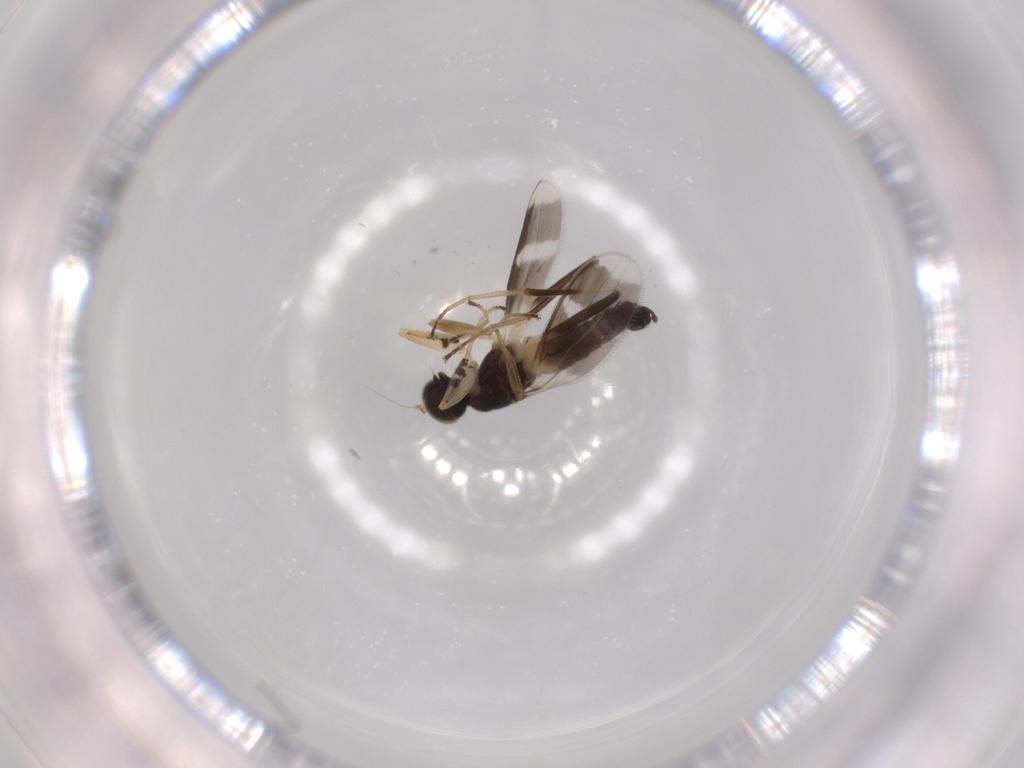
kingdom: Animalia
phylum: Arthropoda
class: Insecta
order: Diptera
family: Hybotidae
